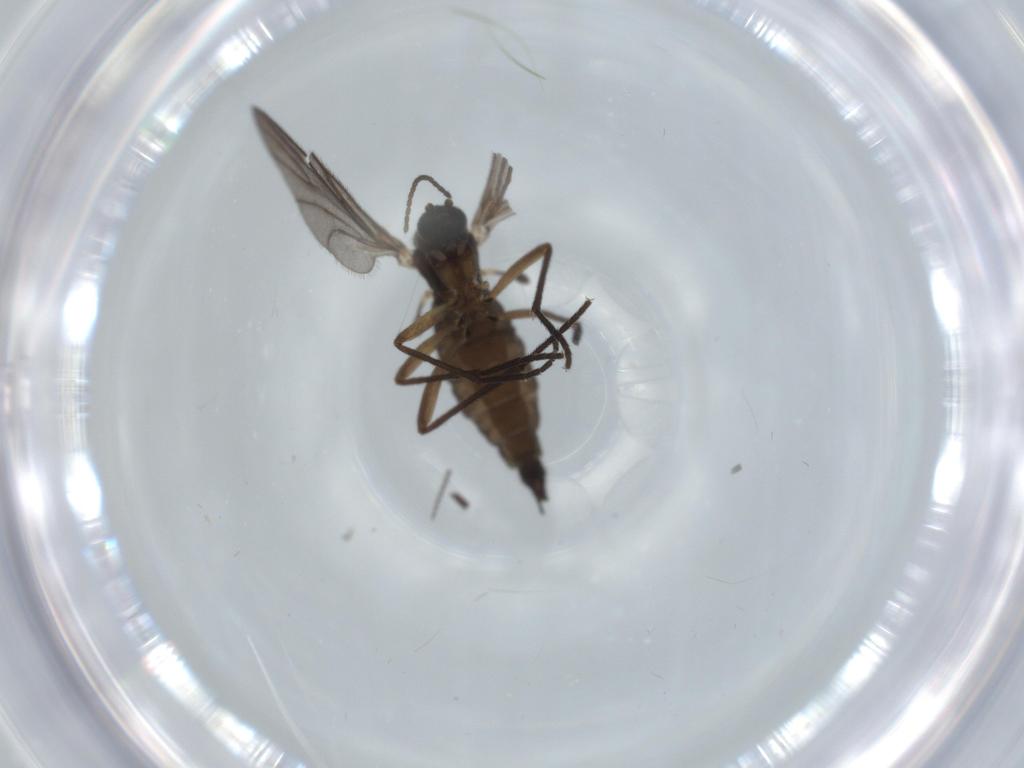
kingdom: Animalia
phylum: Arthropoda
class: Insecta
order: Diptera
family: Sciaridae
